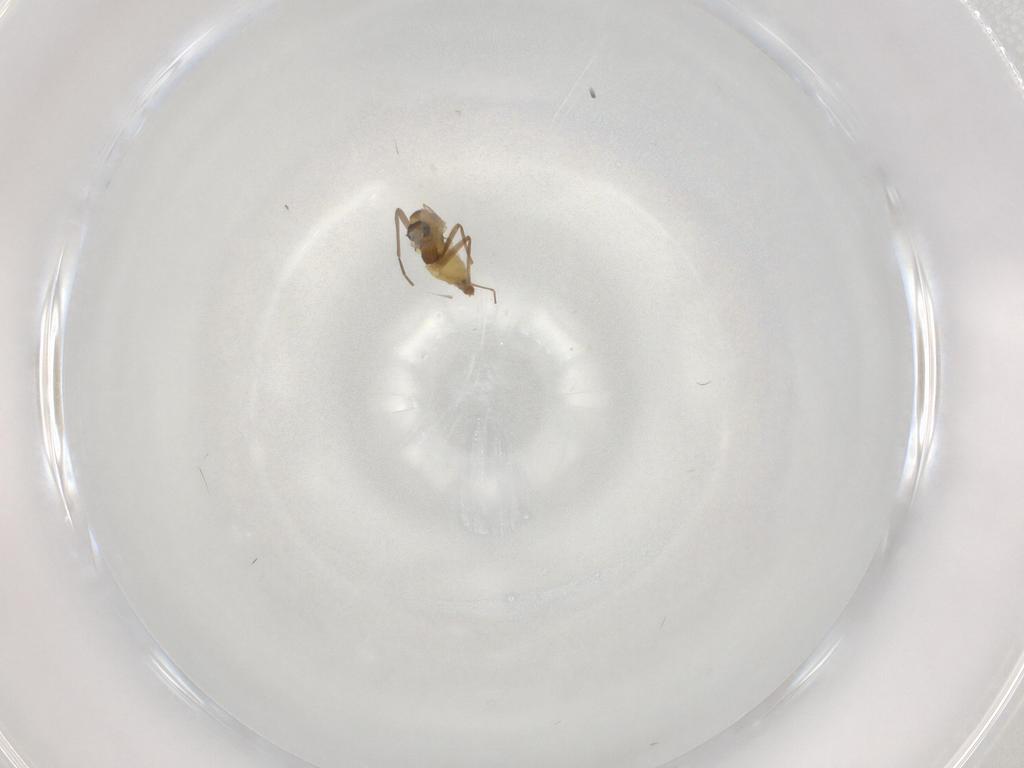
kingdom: Animalia
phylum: Arthropoda
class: Insecta
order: Diptera
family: Chironomidae
